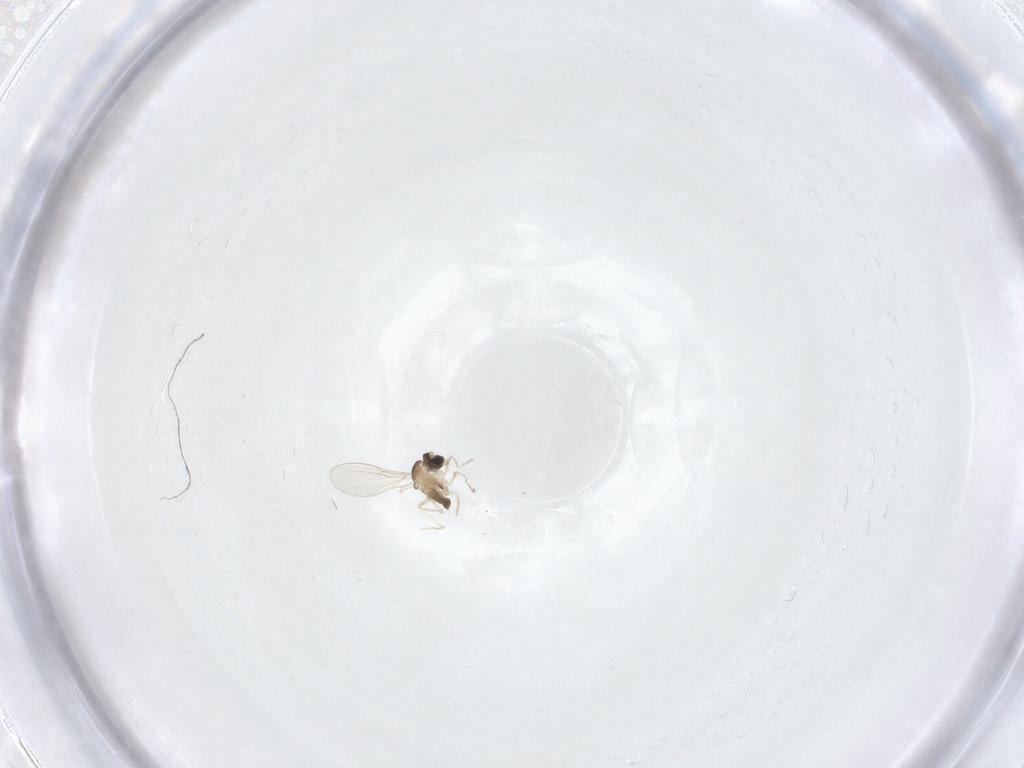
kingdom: Animalia
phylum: Arthropoda
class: Insecta
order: Diptera
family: Cecidomyiidae
